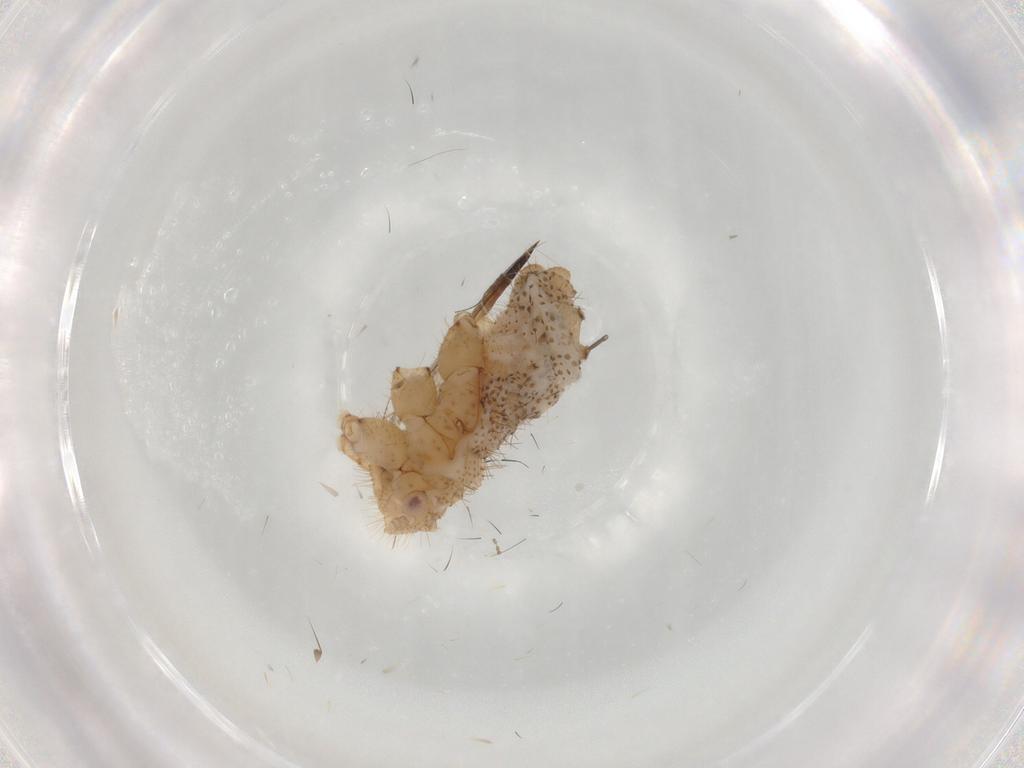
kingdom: Animalia
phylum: Arthropoda
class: Insecta
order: Hemiptera
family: Aphididae
